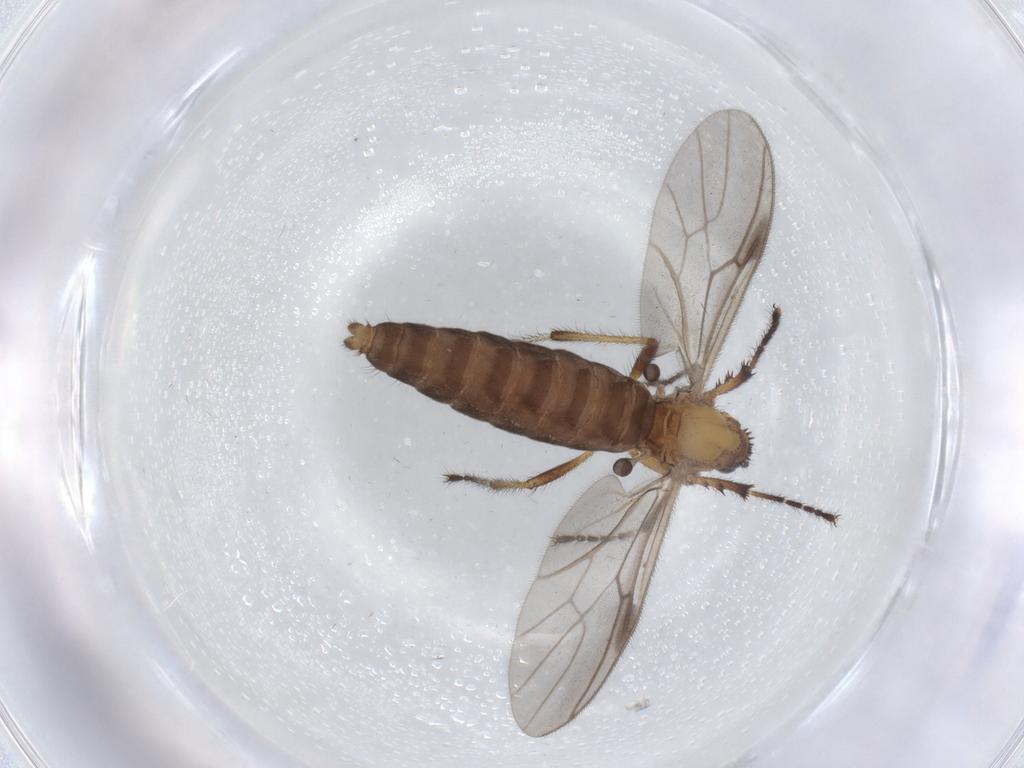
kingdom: Animalia
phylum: Arthropoda
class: Insecta
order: Diptera
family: Bibionidae
